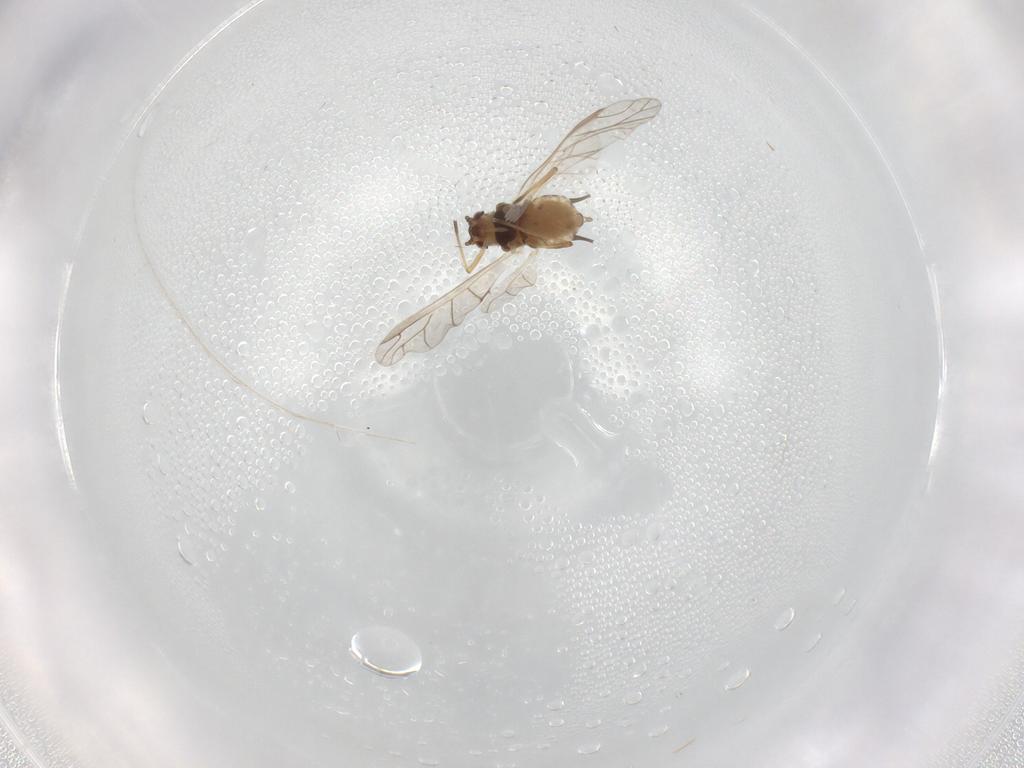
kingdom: Animalia
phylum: Arthropoda
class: Insecta
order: Hemiptera
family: Aphididae
